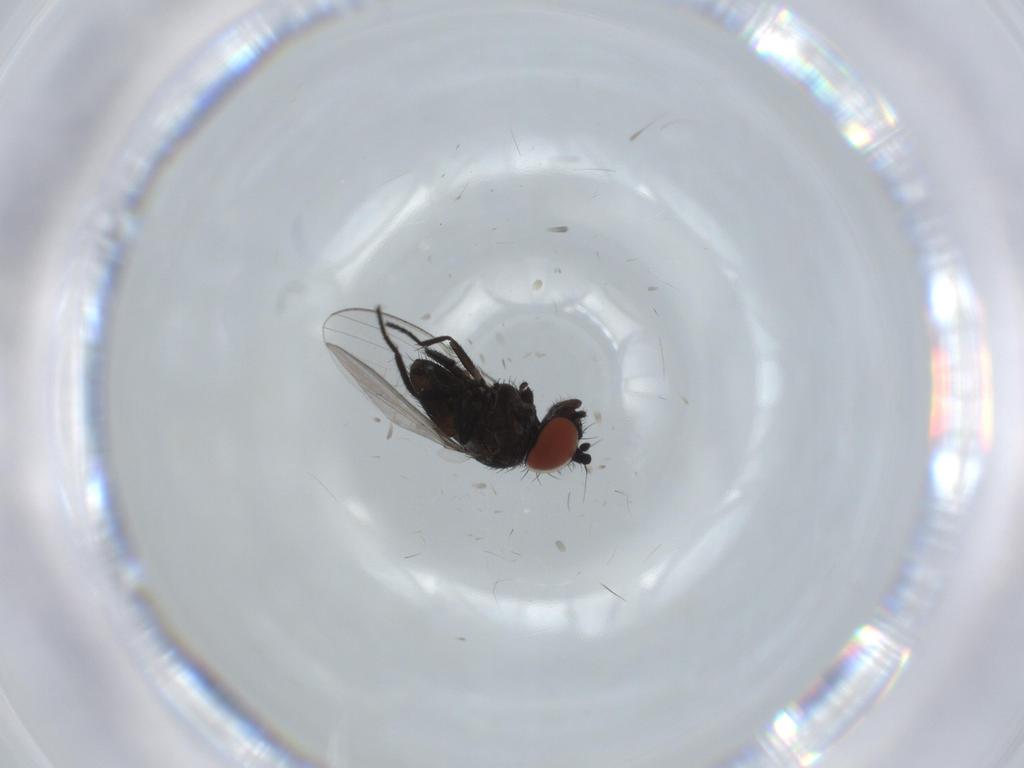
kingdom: Animalia
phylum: Arthropoda
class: Insecta
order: Diptera
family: Milichiidae
